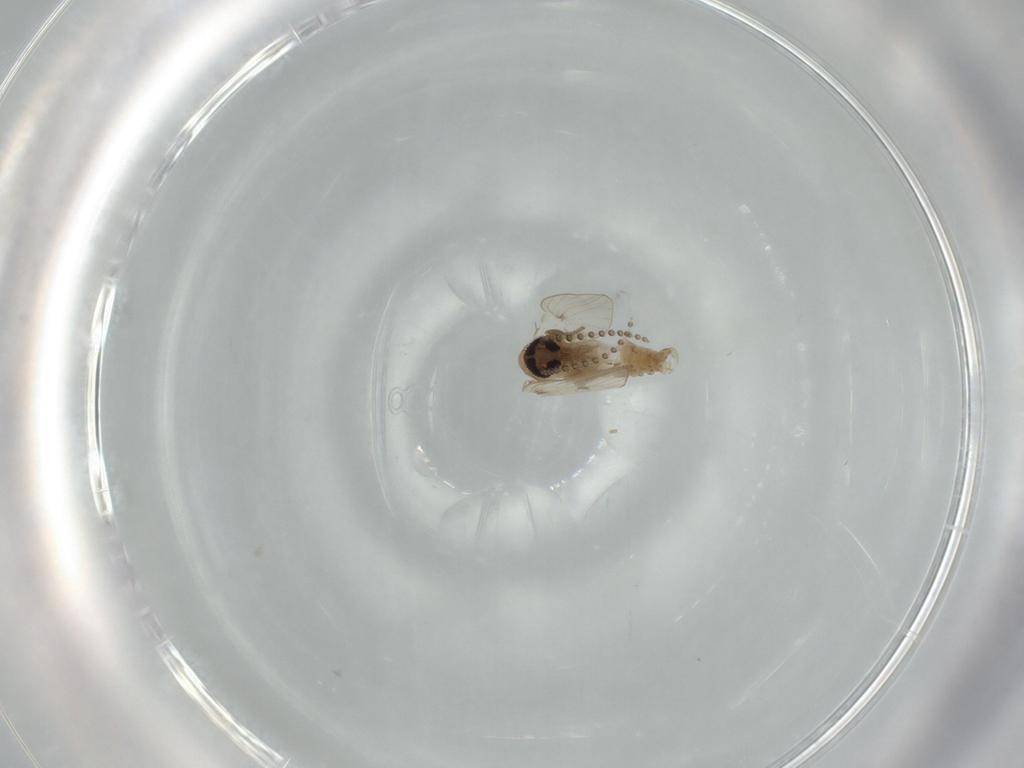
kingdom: Animalia
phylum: Arthropoda
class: Insecta
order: Diptera
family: Psychodidae
